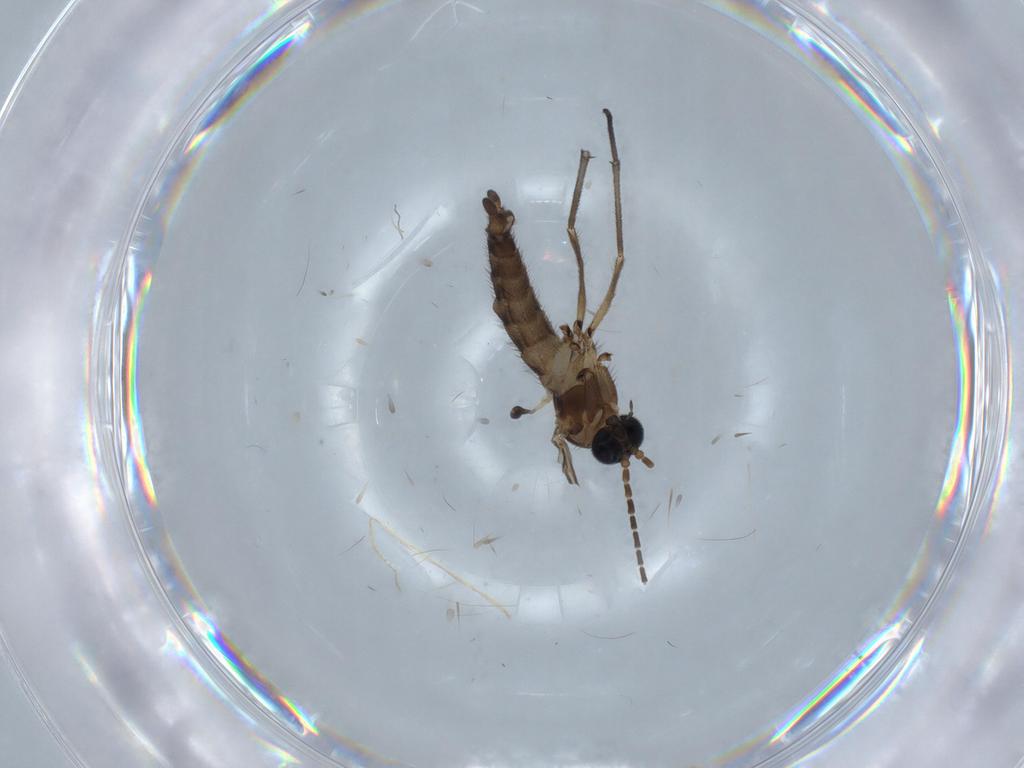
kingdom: Animalia
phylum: Arthropoda
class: Insecta
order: Diptera
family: Sciaridae
